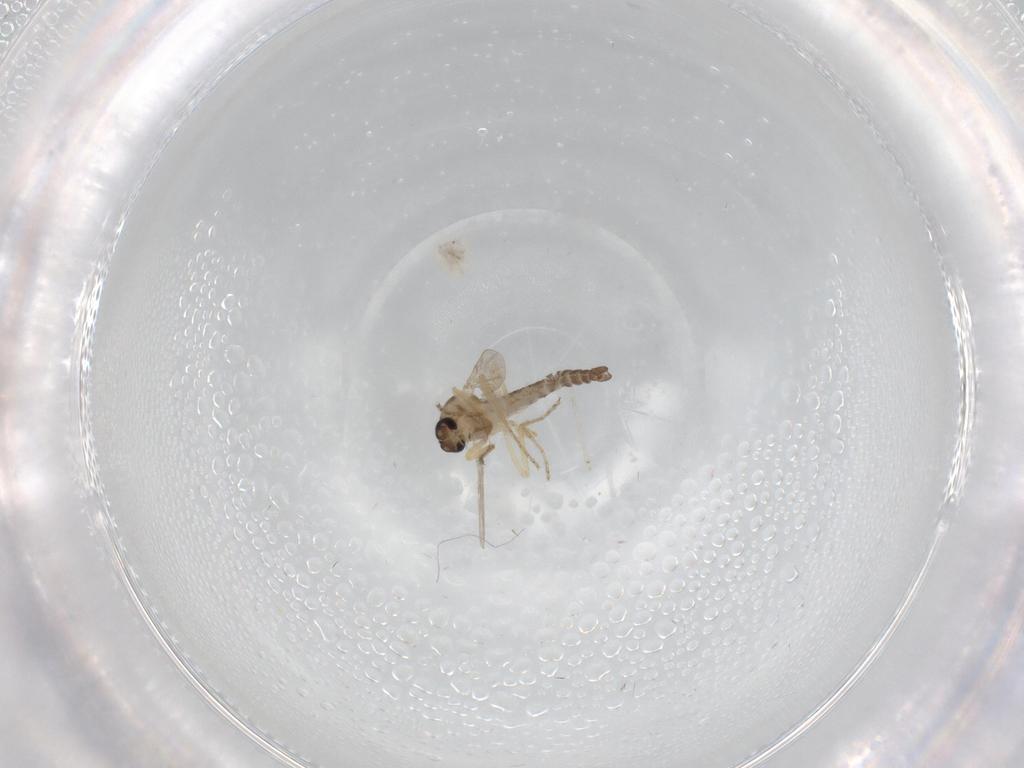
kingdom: Animalia
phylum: Arthropoda
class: Insecta
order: Diptera
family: Ceratopogonidae
